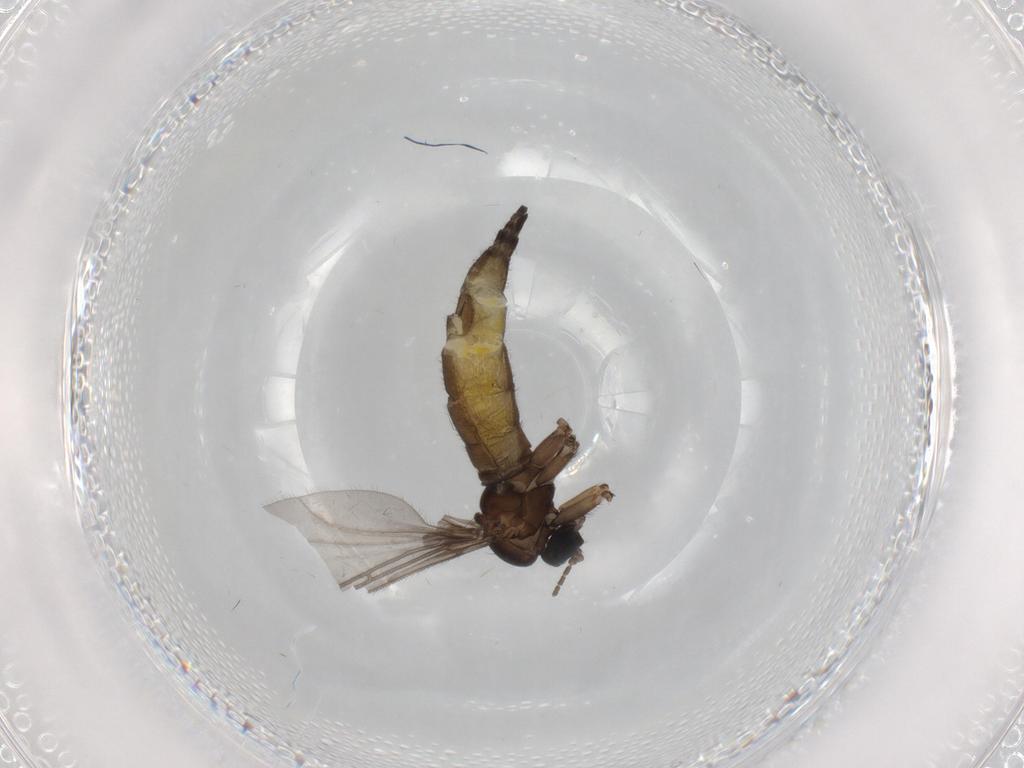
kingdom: Animalia
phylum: Arthropoda
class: Insecta
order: Diptera
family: Sciaridae
